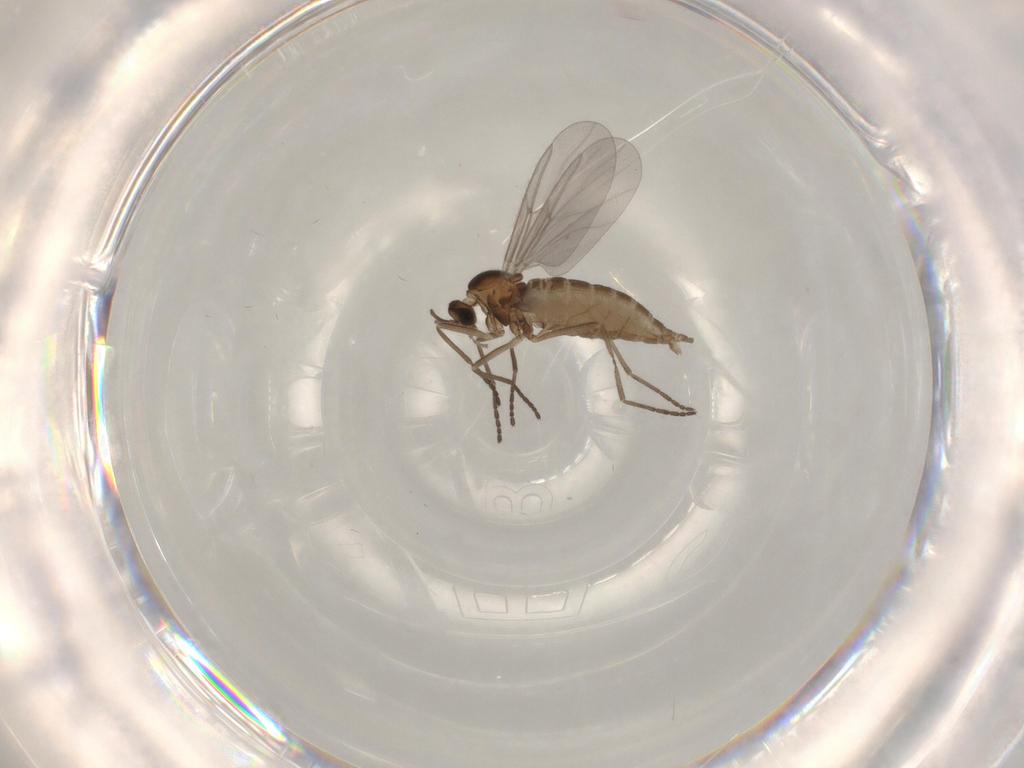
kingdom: Animalia
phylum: Arthropoda
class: Insecta
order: Diptera
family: Cecidomyiidae
